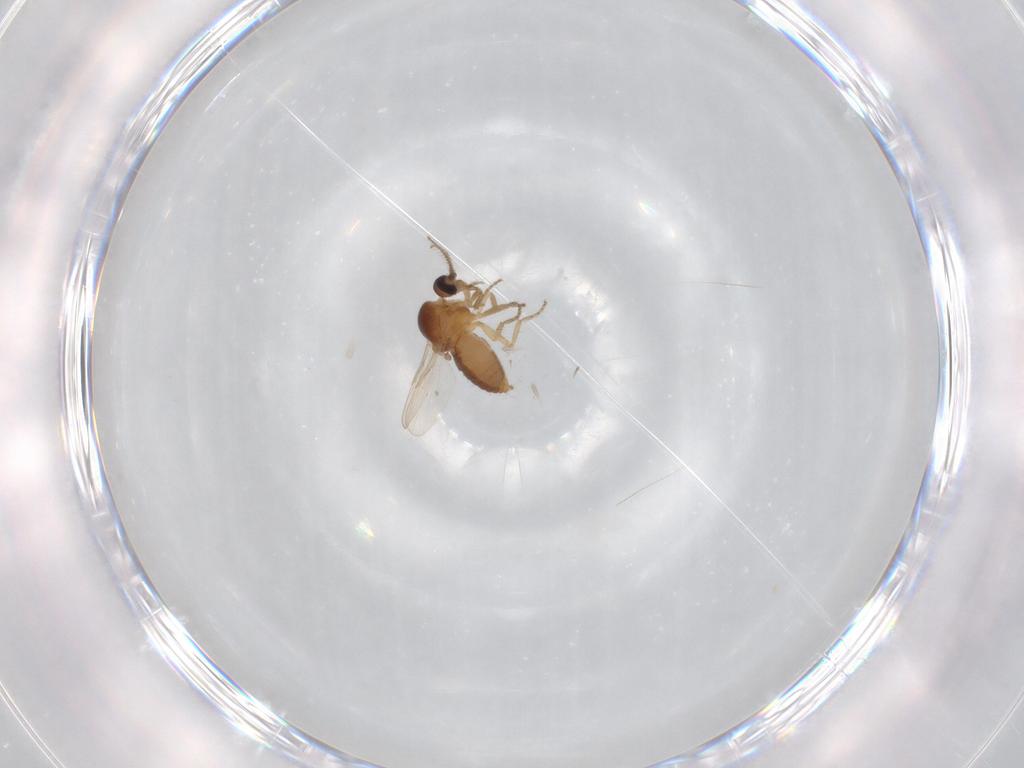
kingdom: Animalia
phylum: Arthropoda
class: Insecta
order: Diptera
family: Ceratopogonidae
